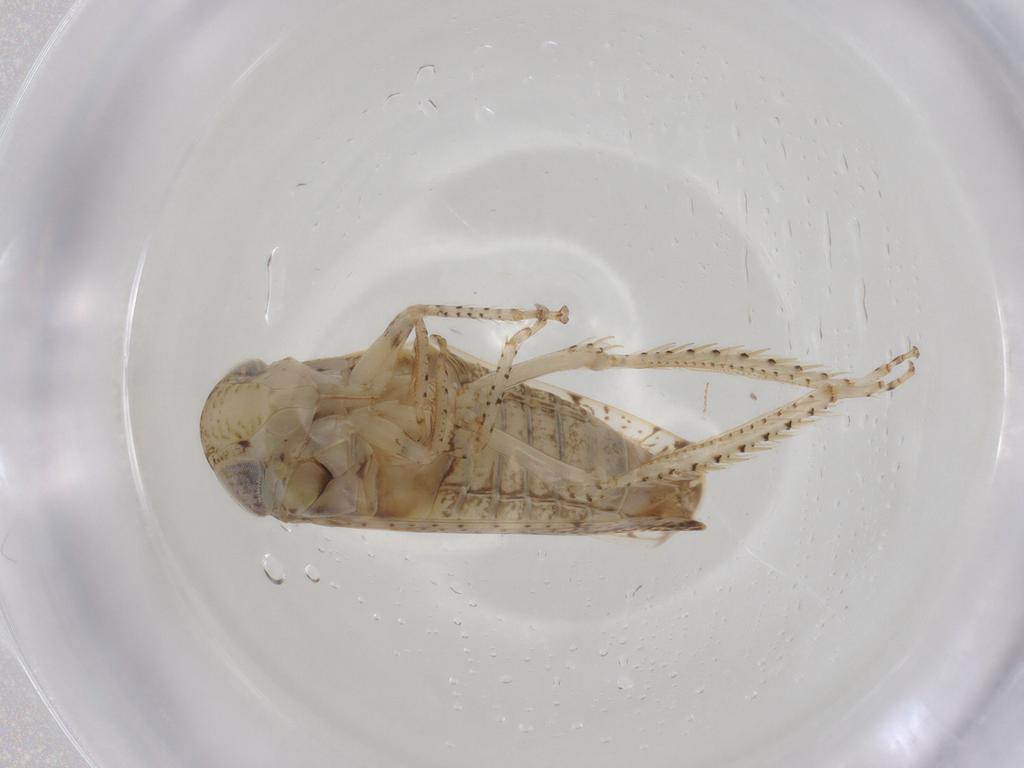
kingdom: Animalia
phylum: Arthropoda
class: Insecta
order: Hemiptera
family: Cicadellidae
